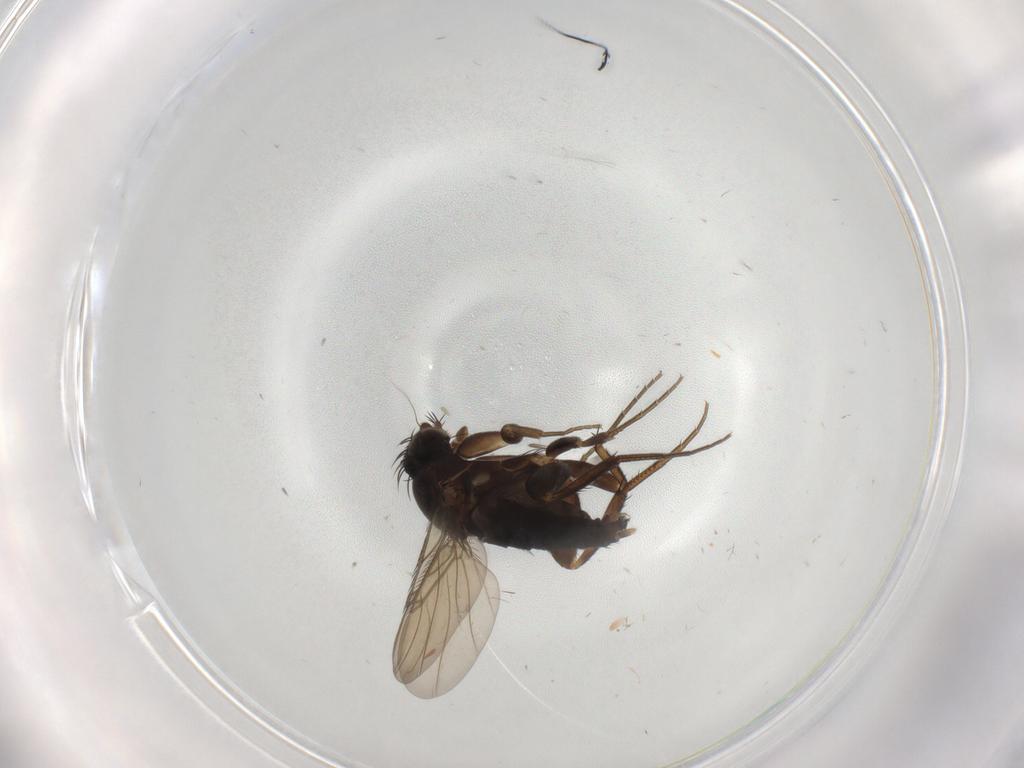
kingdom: Animalia
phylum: Arthropoda
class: Insecta
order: Diptera
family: Phoridae
